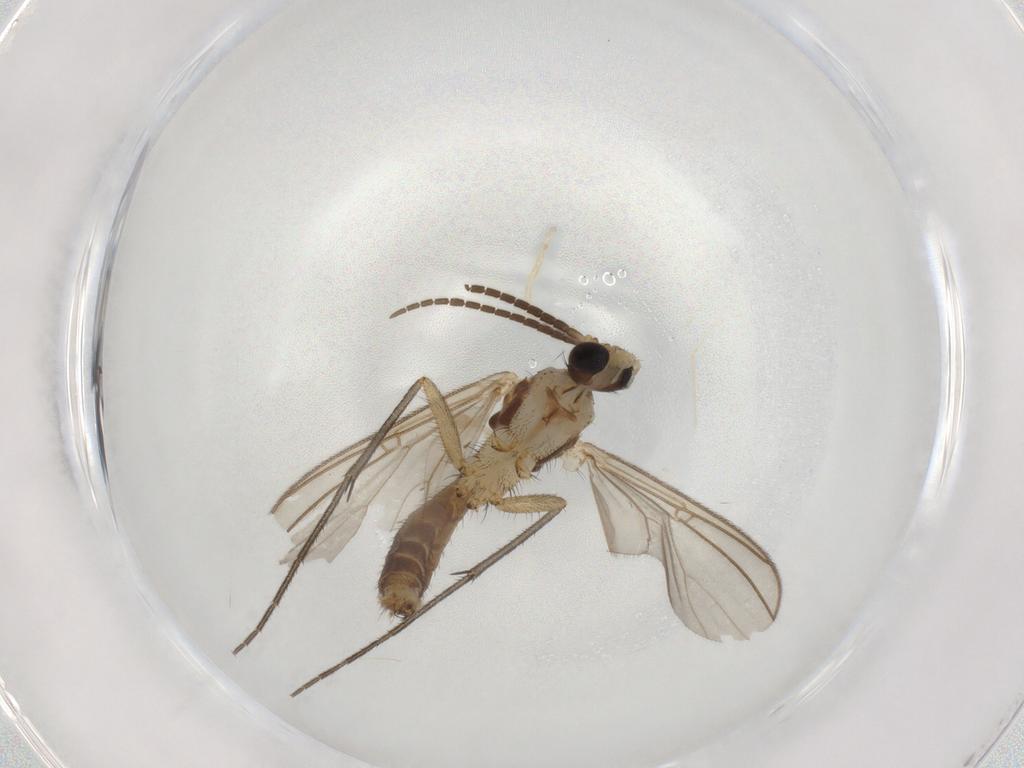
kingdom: Animalia
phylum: Arthropoda
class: Insecta
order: Diptera
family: Mycetophilidae
